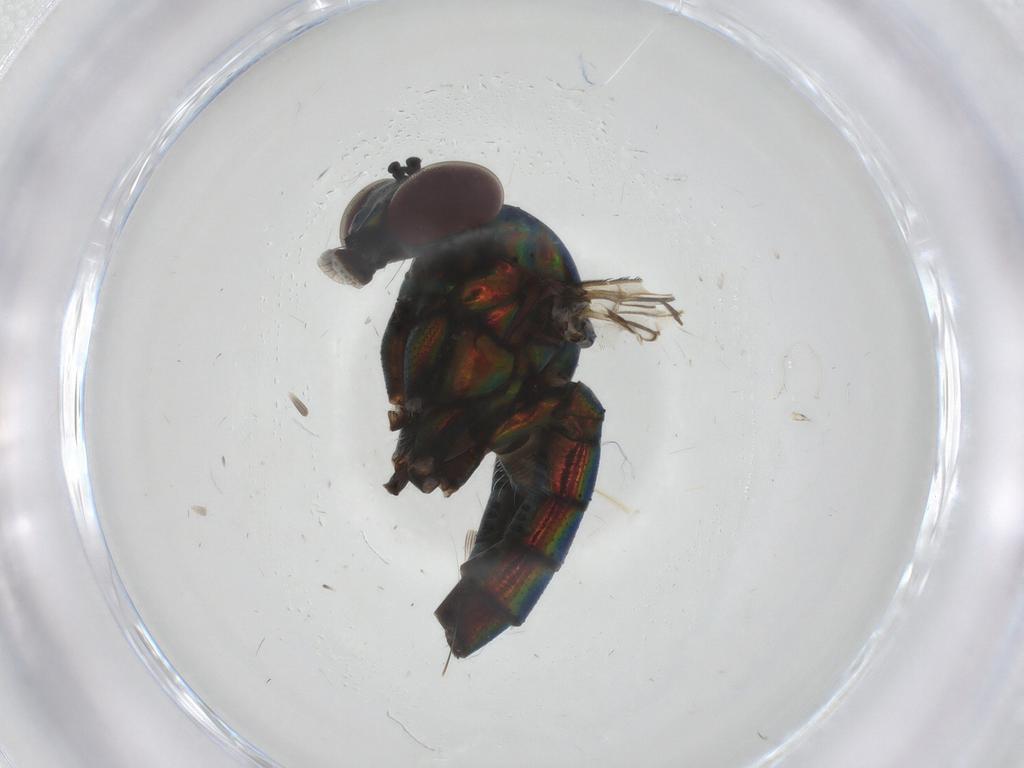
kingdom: Animalia
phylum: Arthropoda
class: Insecta
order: Diptera
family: Dolichopodidae
